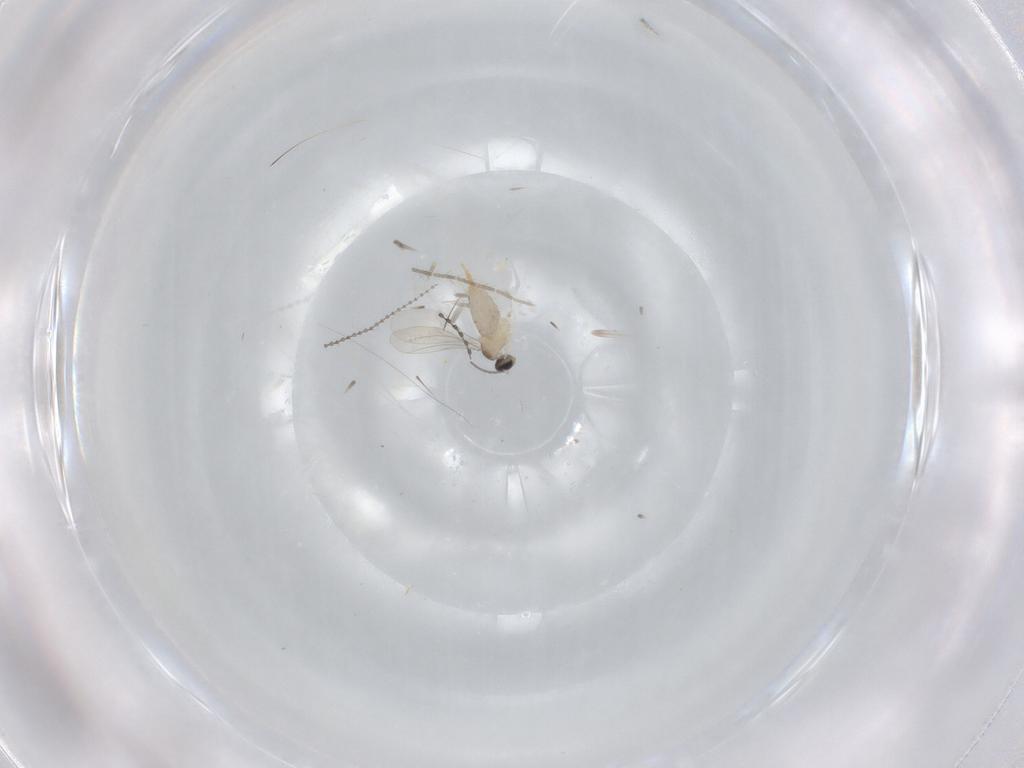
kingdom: Animalia
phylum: Arthropoda
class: Insecta
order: Diptera
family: Cecidomyiidae
